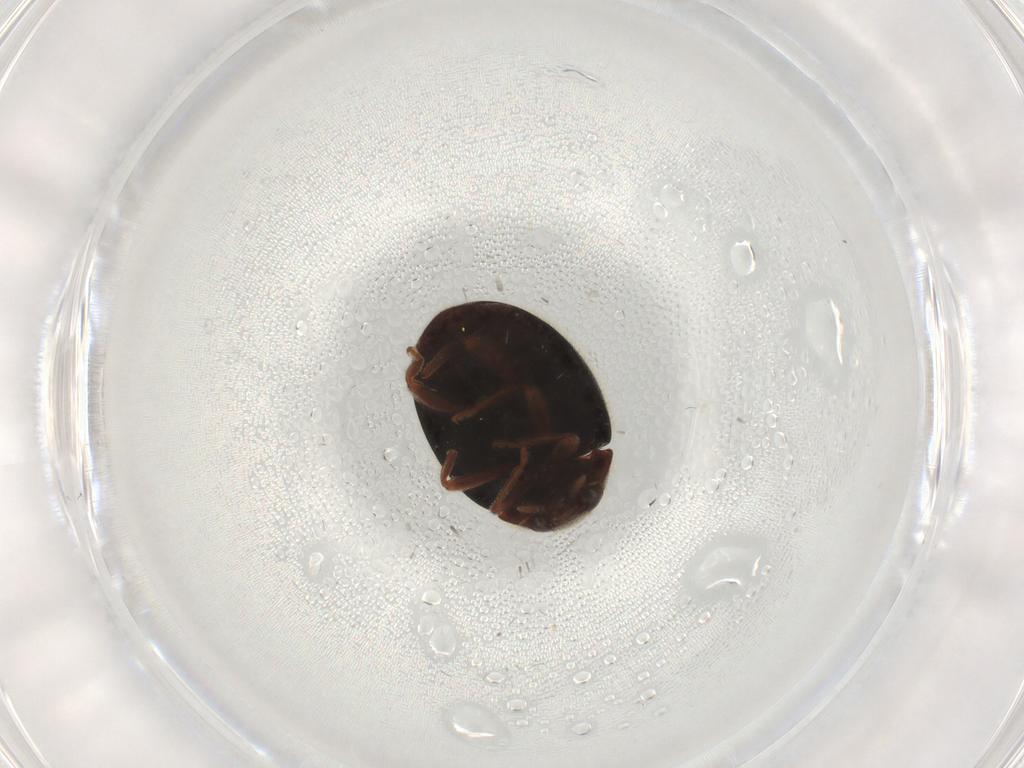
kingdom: Animalia
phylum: Arthropoda
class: Insecta
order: Coleoptera
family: Coccinellidae
